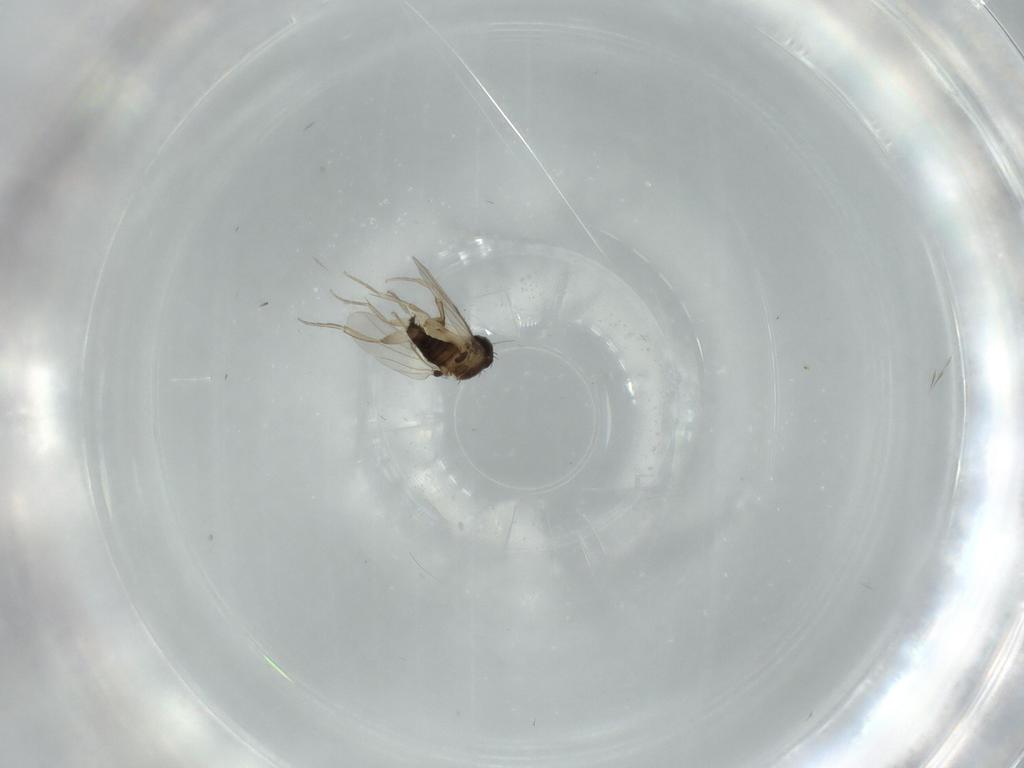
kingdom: Animalia
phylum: Arthropoda
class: Insecta
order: Diptera
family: Phoridae
